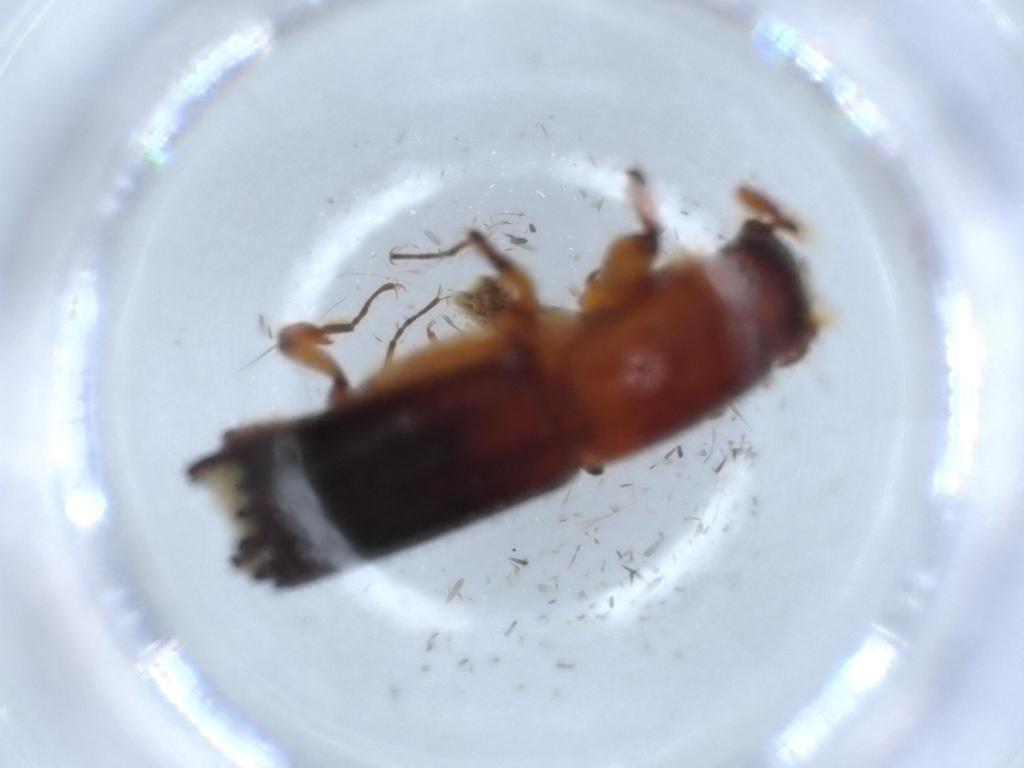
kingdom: Animalia
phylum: Arthropoda
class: Insecta
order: Coleoptera
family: Curculionidae
